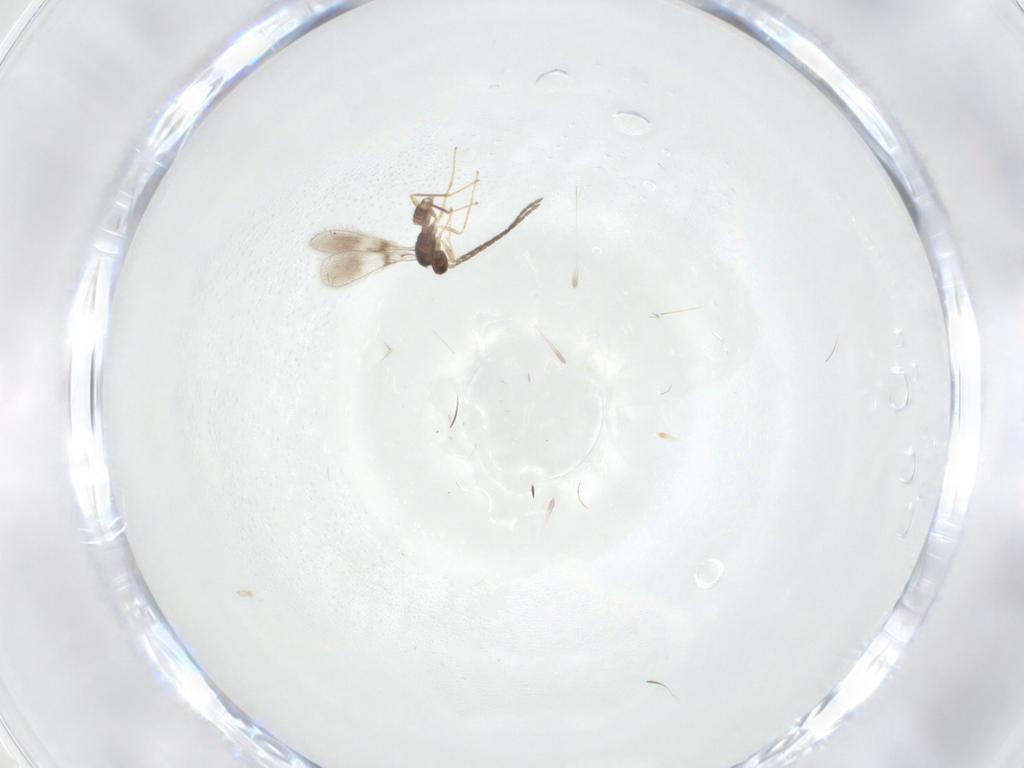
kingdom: Animalia
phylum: Arthropoda
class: Insecta
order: Hymenoptera
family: Mymaridae
